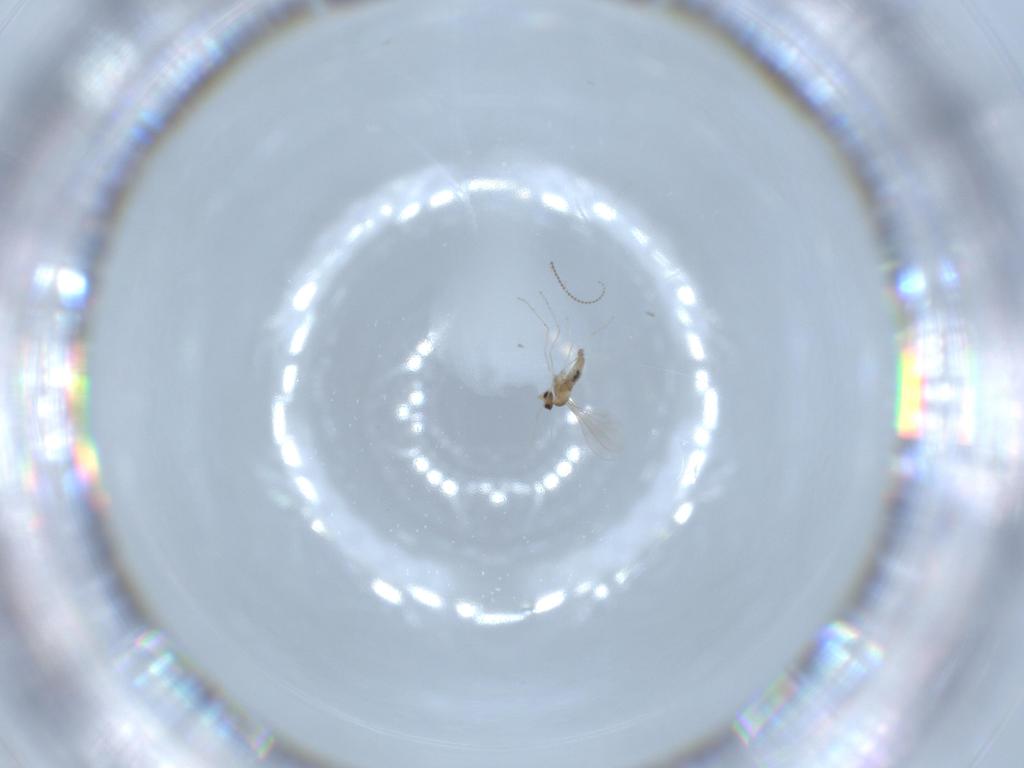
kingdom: Animalia
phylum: Arthropoda
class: Insecta
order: Diptera
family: Cecidomyiidae
